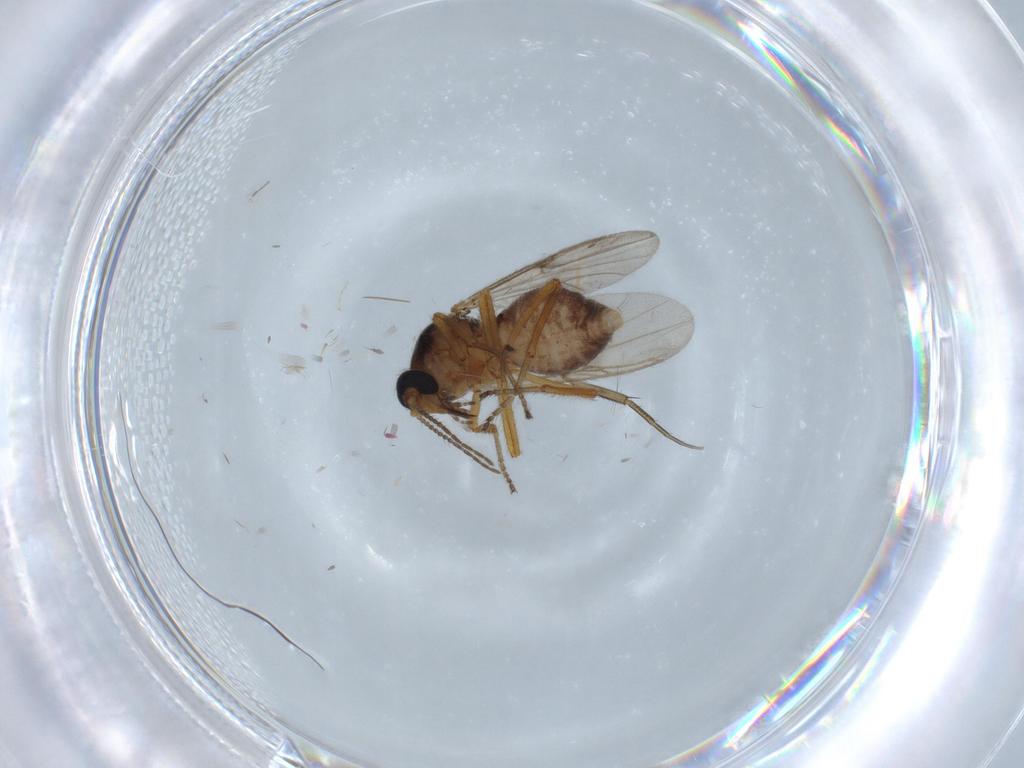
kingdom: Animalia
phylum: Arthropoda
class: Insecta
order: Diptera
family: Ceratopogonidae
